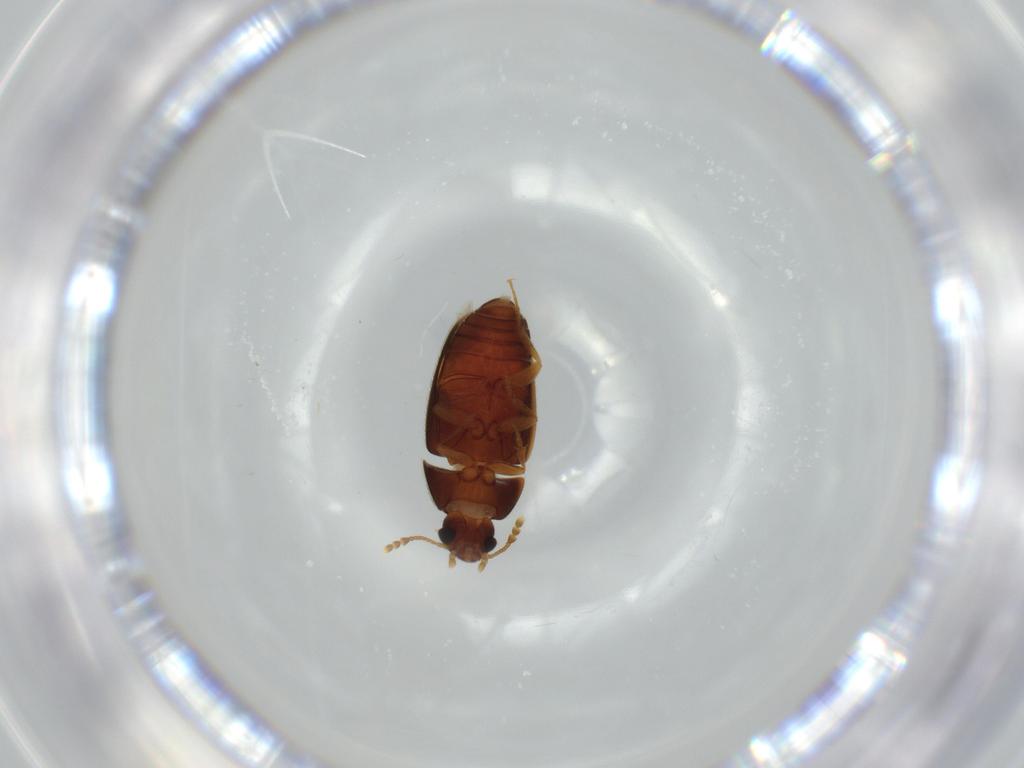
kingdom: Animalia
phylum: Arthropoda
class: Insecta
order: Coleoptera
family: Mycetophagidae
